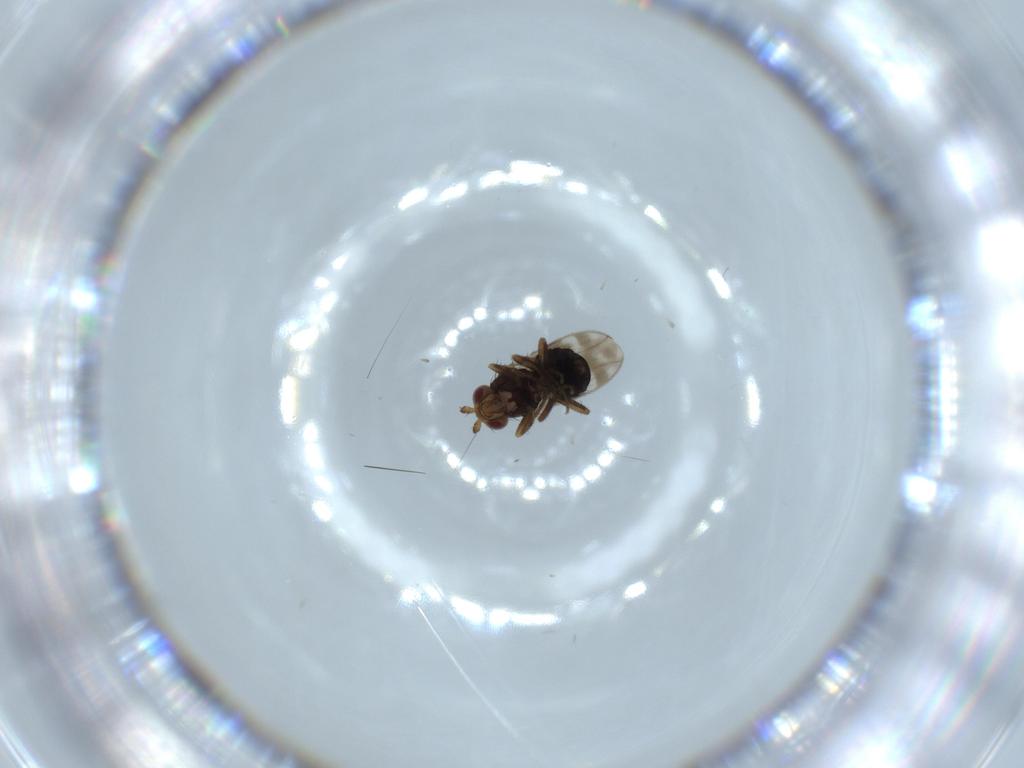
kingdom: Animalia
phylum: Arthropoda
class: Insecta
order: Diptera
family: Sphaeroceridae
